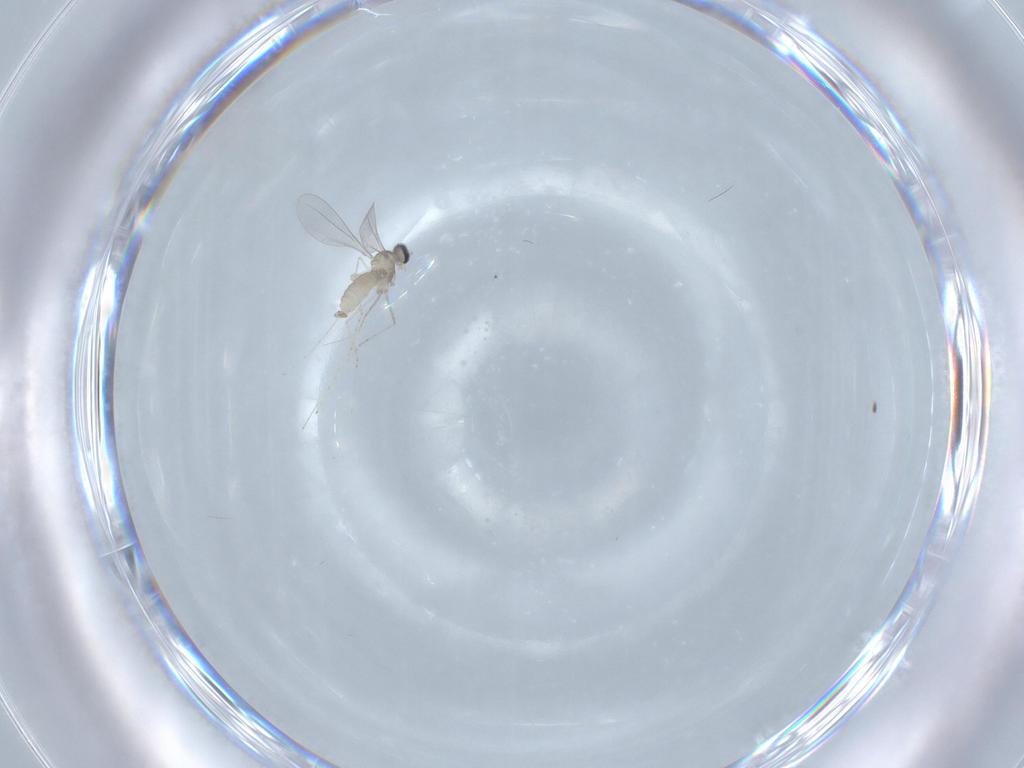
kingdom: Animalia
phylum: Arthropoda
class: Insecta
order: Diptera
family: Cecidomyiidae
